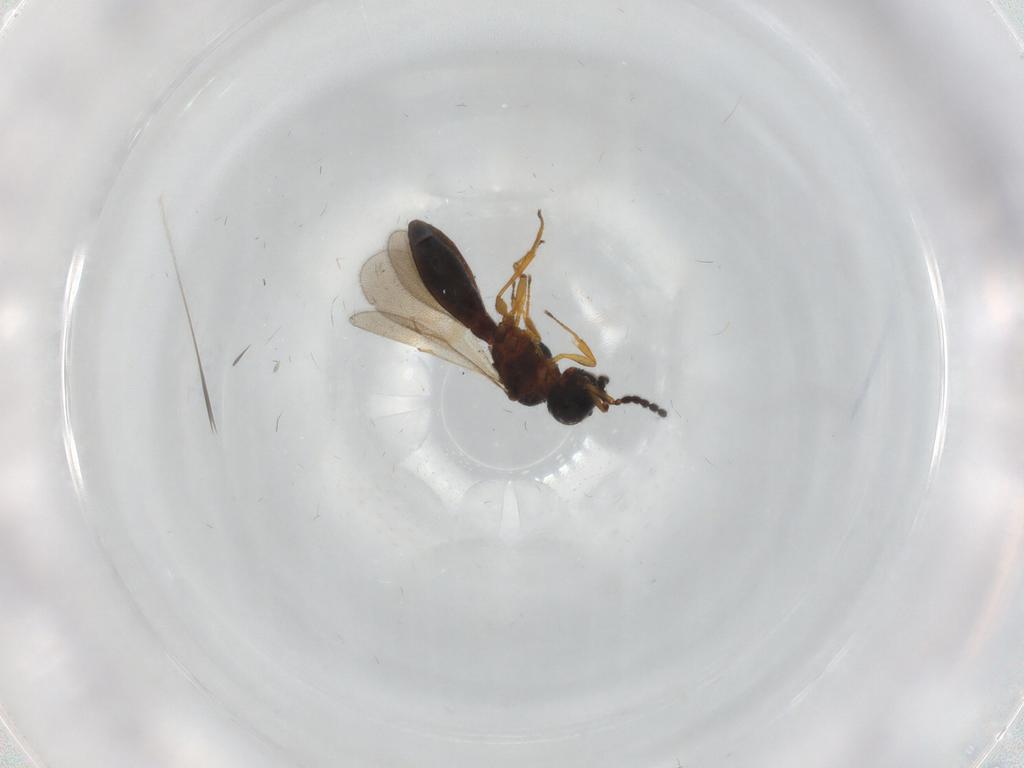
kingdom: Animalia
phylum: Arthropoda
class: Insecta
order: Hymenoptera
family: Scelionidae
